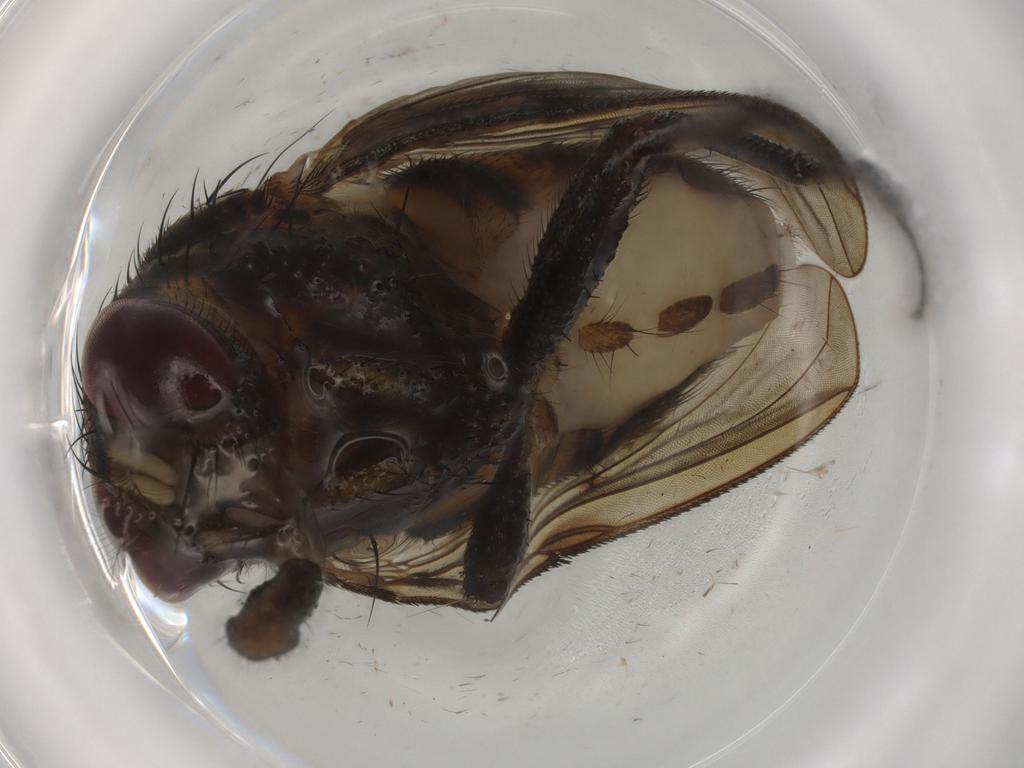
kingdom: Animalia
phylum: Arthropoda
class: Insecta
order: Diptera
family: Muscidae
